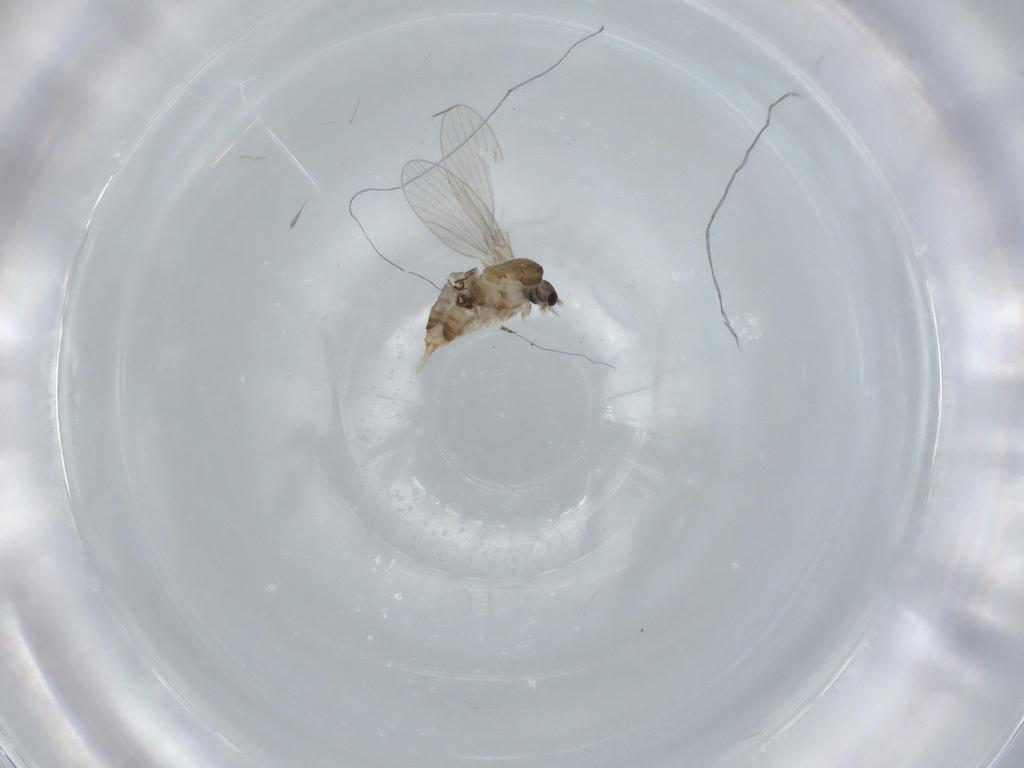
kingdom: Animalia
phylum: Arthropoda
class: Insecta
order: Diptera
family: Psychodidae
